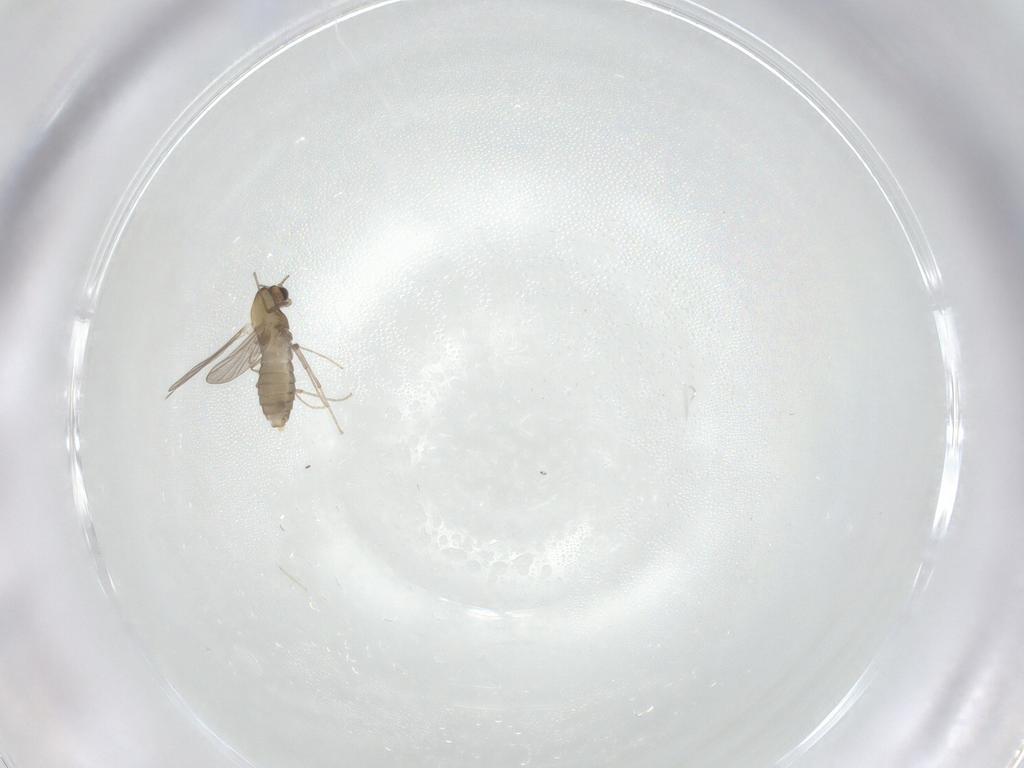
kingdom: Animalia
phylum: Arthropoda
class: Insecta
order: Diptera
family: Chironomidae
